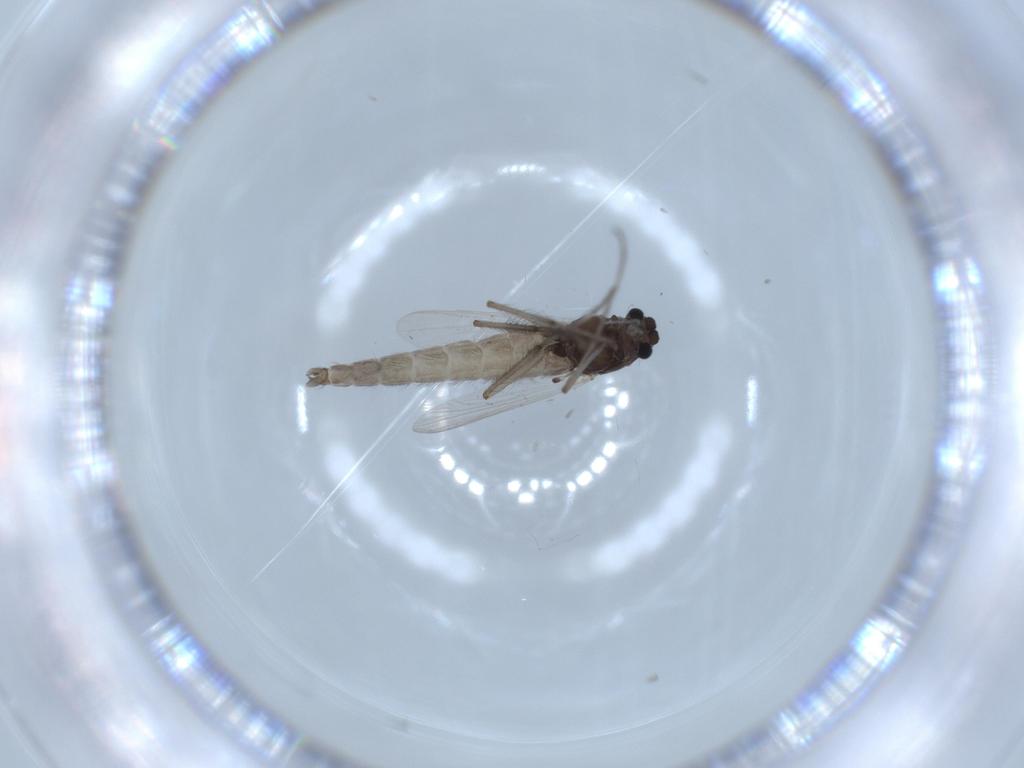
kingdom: Animalia
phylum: Arthropoda
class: Insecta
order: Diptera
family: Chironomidae
